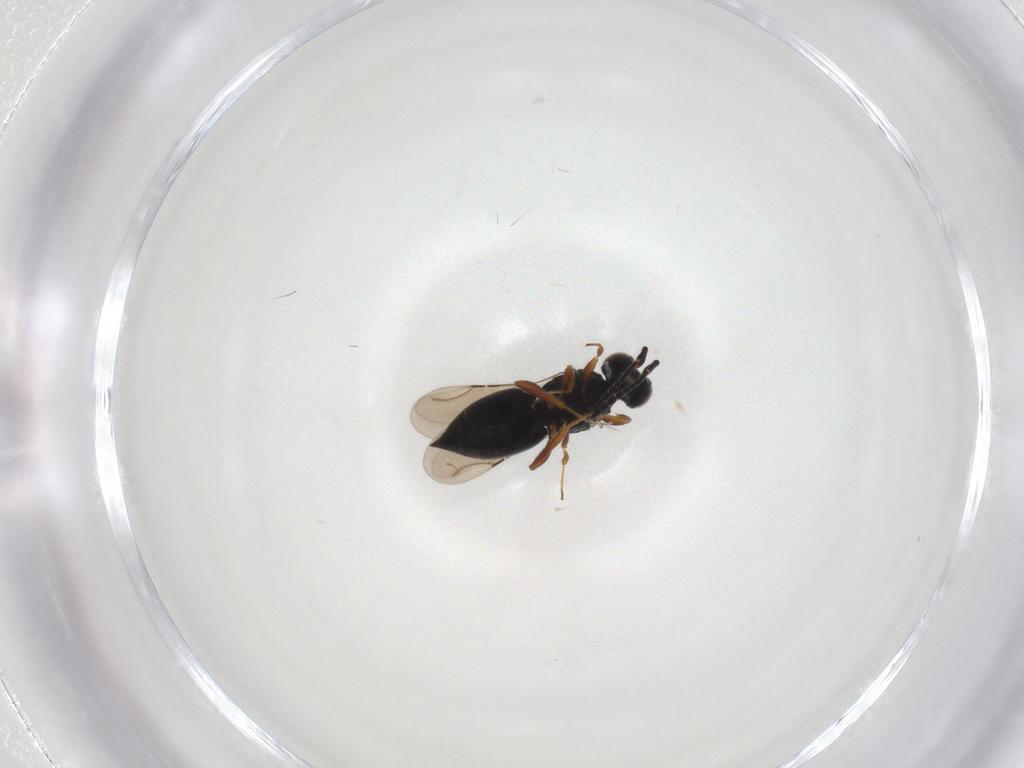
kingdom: Animalia
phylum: Arthropoda
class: Insecta
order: Hymenoptera
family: Scelionidae
